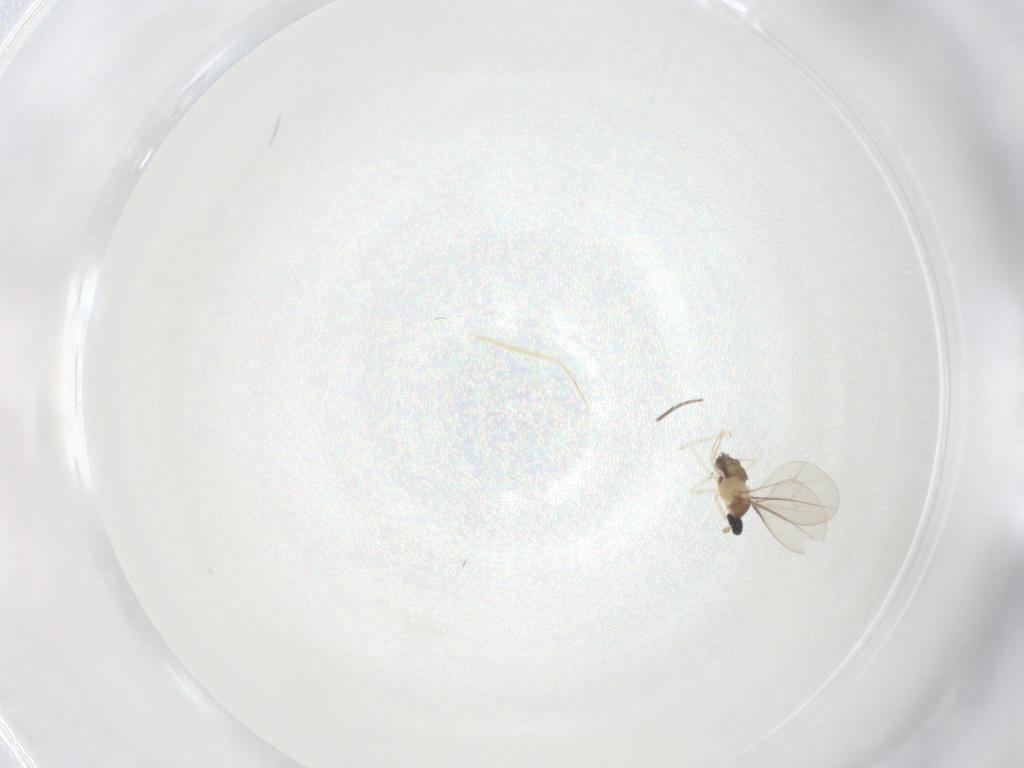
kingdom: Animalia
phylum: Arthropoda
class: Insecta
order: Diptera
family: Cecidomyiidae
